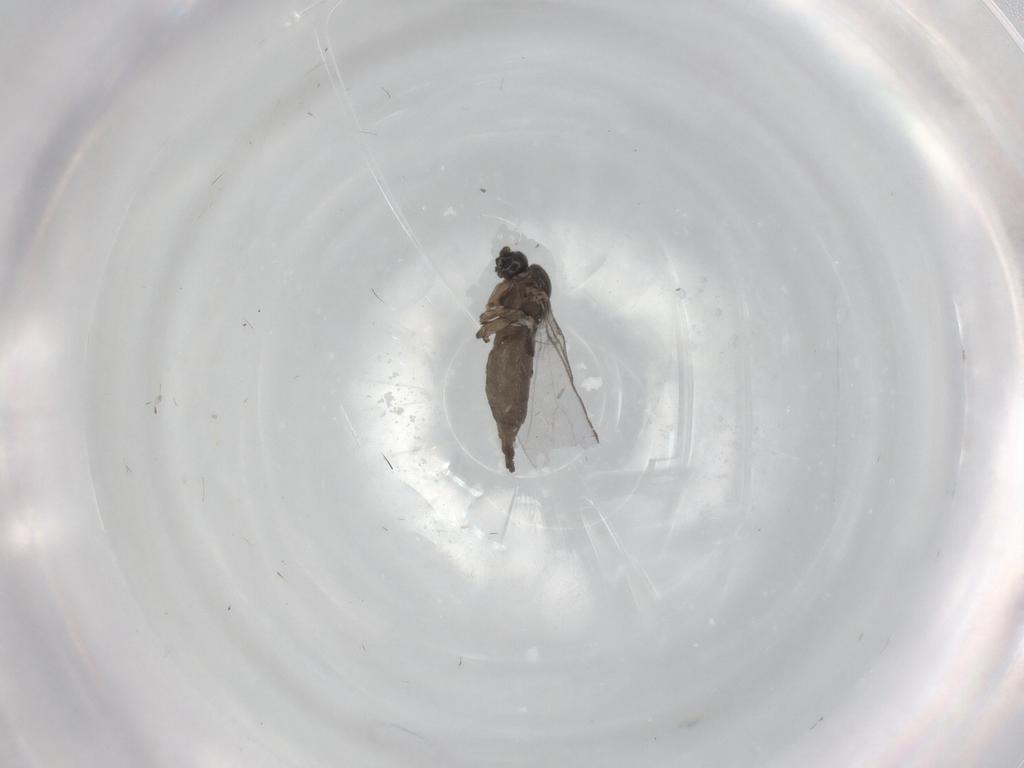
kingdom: Animalia
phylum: Arthropoda
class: Insecta
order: Diptera
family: Sciaridae
